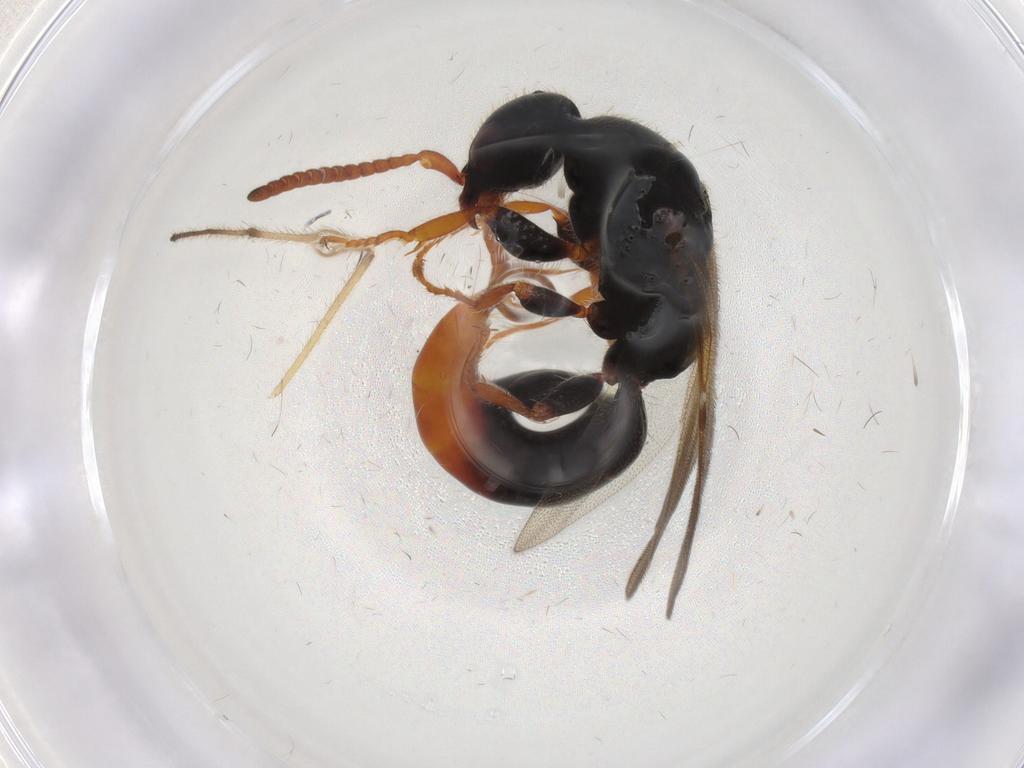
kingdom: Animalia
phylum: Arthropoda
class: Insecta
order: Hymenoptera
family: Bethylidae
